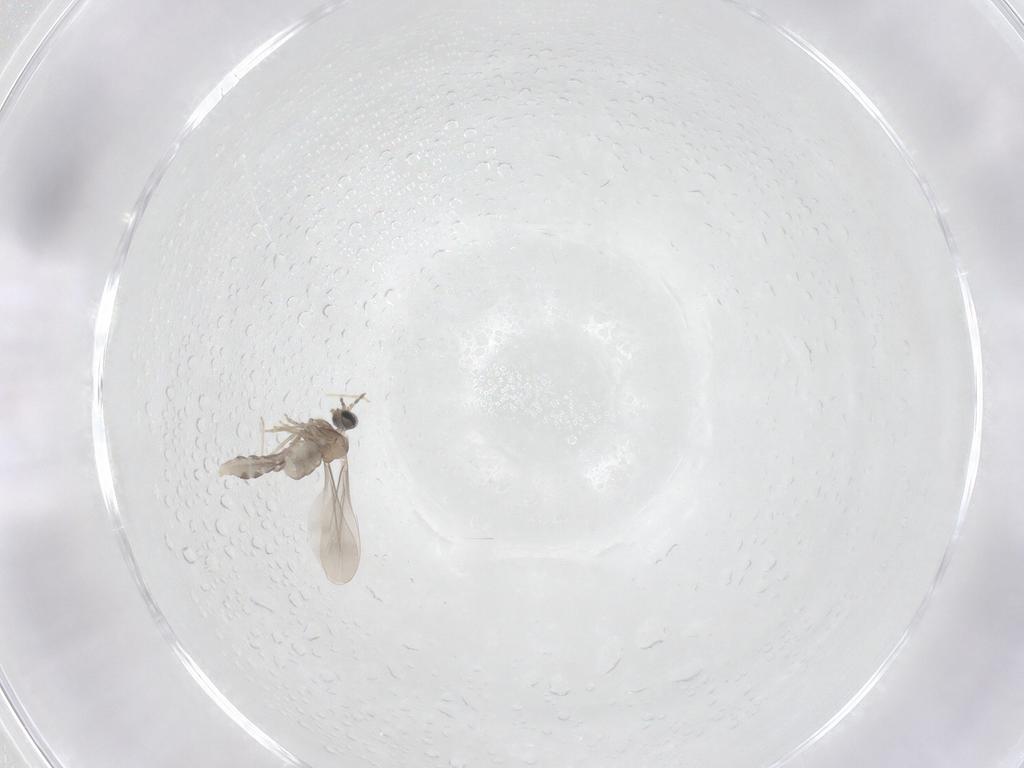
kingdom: Animalia
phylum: Arthropoda
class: Insecta
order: Diptera
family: Cecidomyiidae
